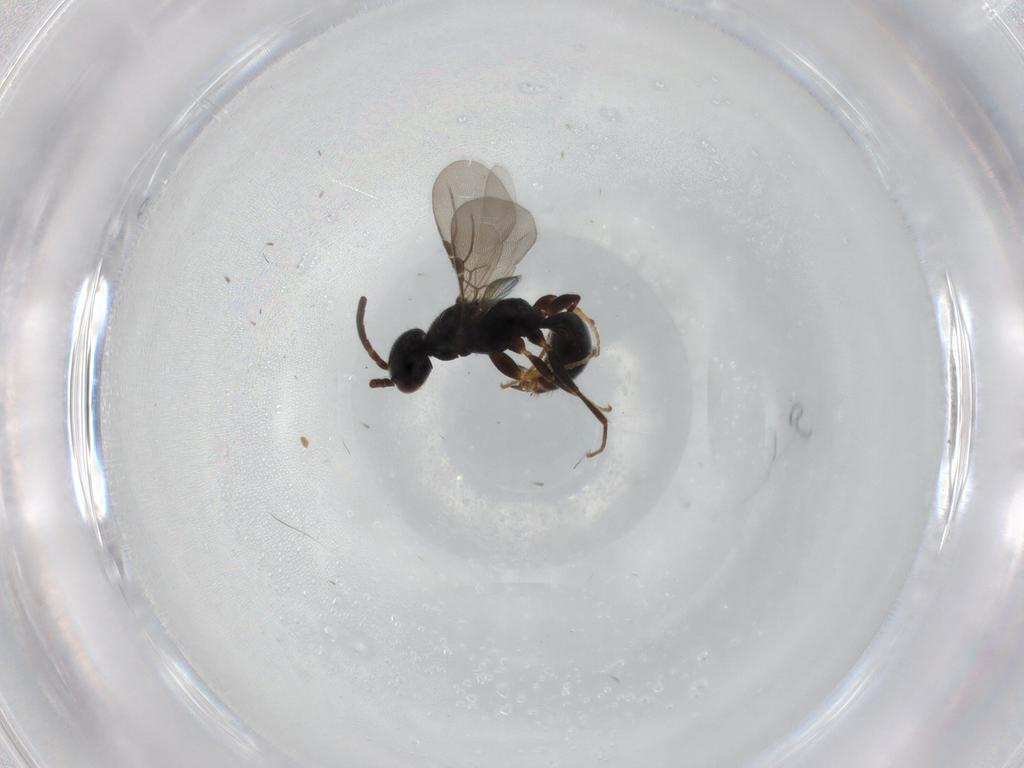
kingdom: Animalia
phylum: Arthropoda
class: Insecta
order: Hymenoptera
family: Bethylidae
